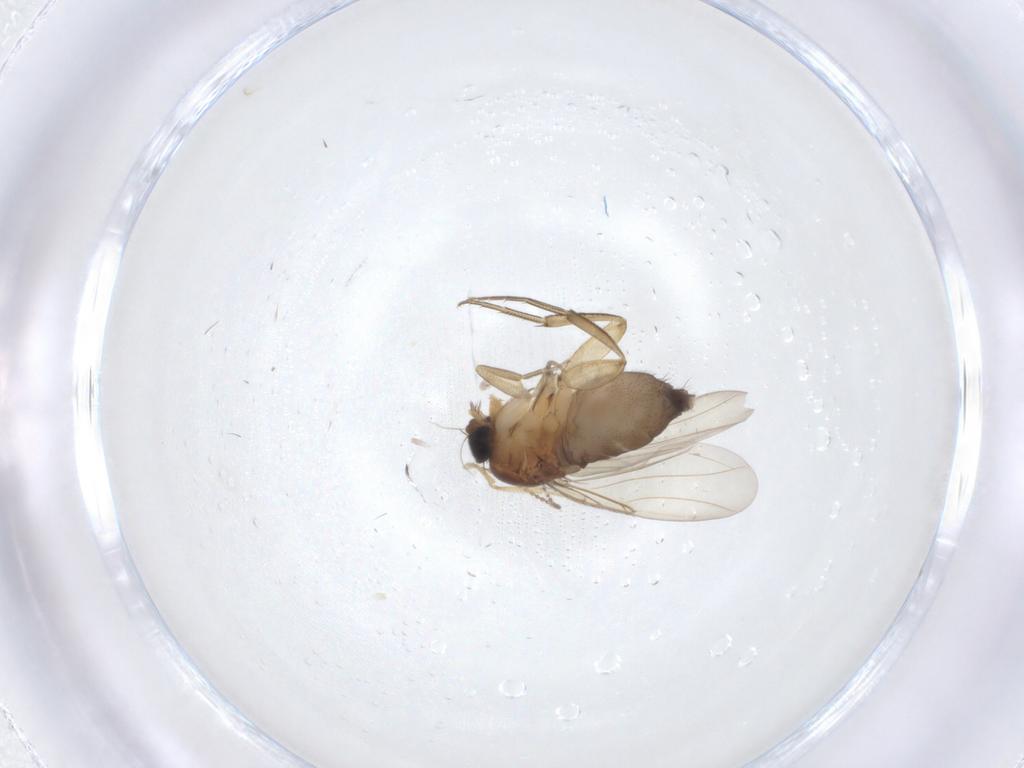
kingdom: Animalia
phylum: Arthropoda
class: Insecta
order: Diptera
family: Phoridae
